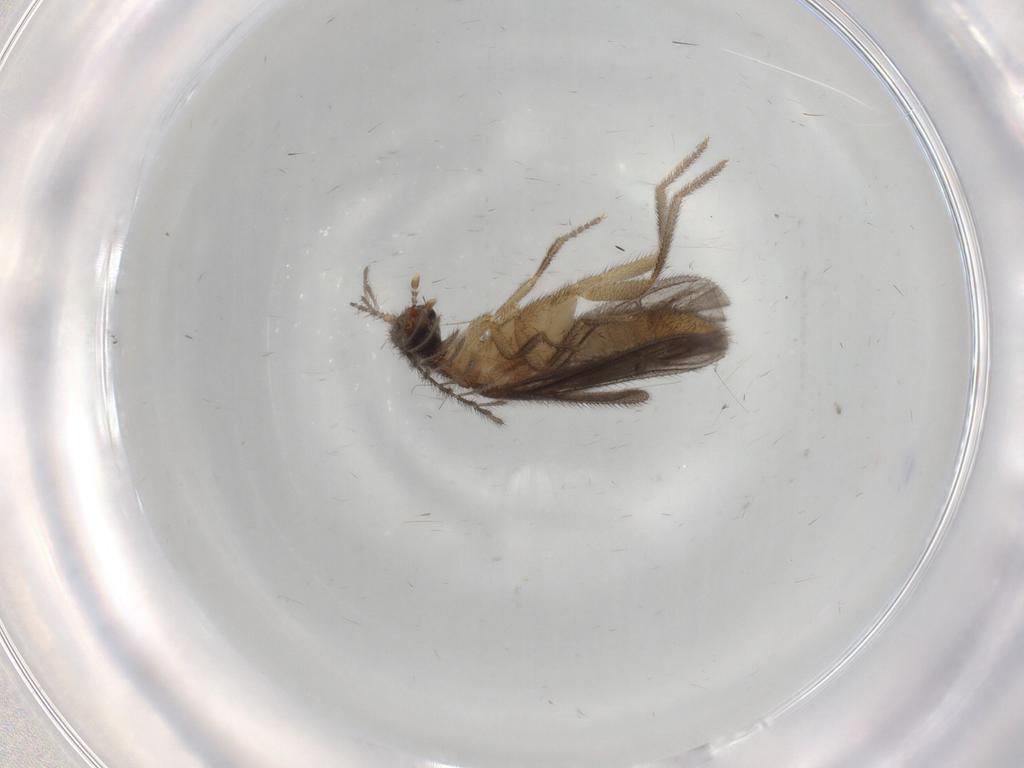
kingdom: Animalia
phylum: Arthropoda
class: Insecta
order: Coleoptera
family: Phengodidae
